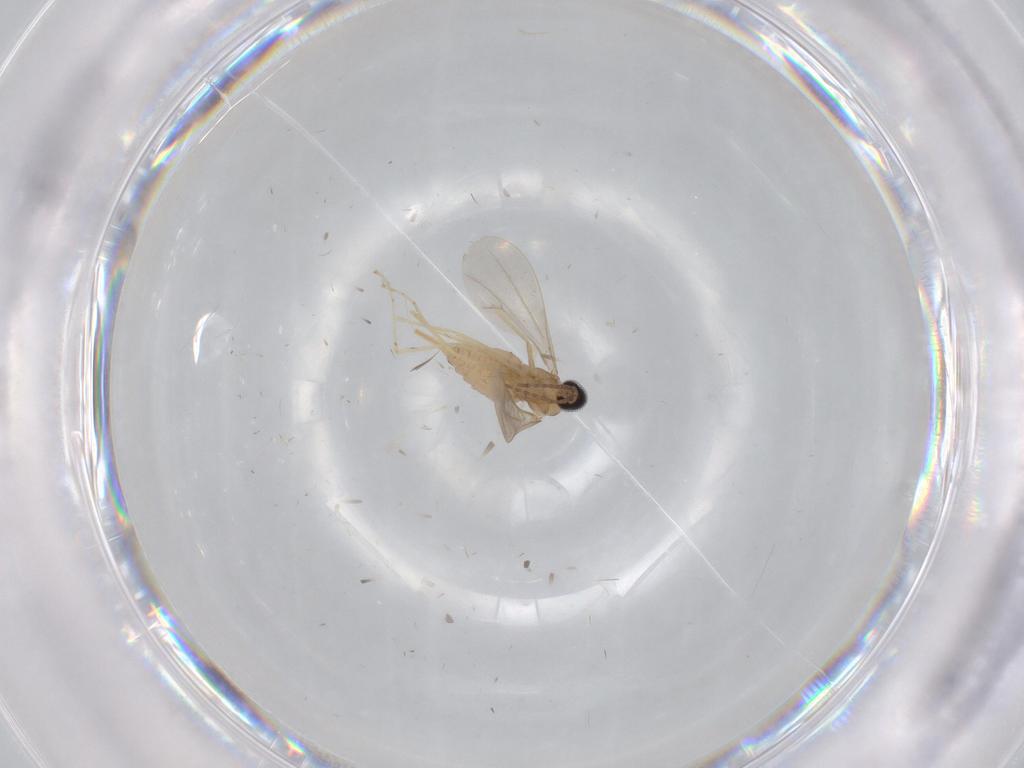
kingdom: Animalia
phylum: Arthropoda
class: Insecta
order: Diptera
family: Cecidomyiidae
